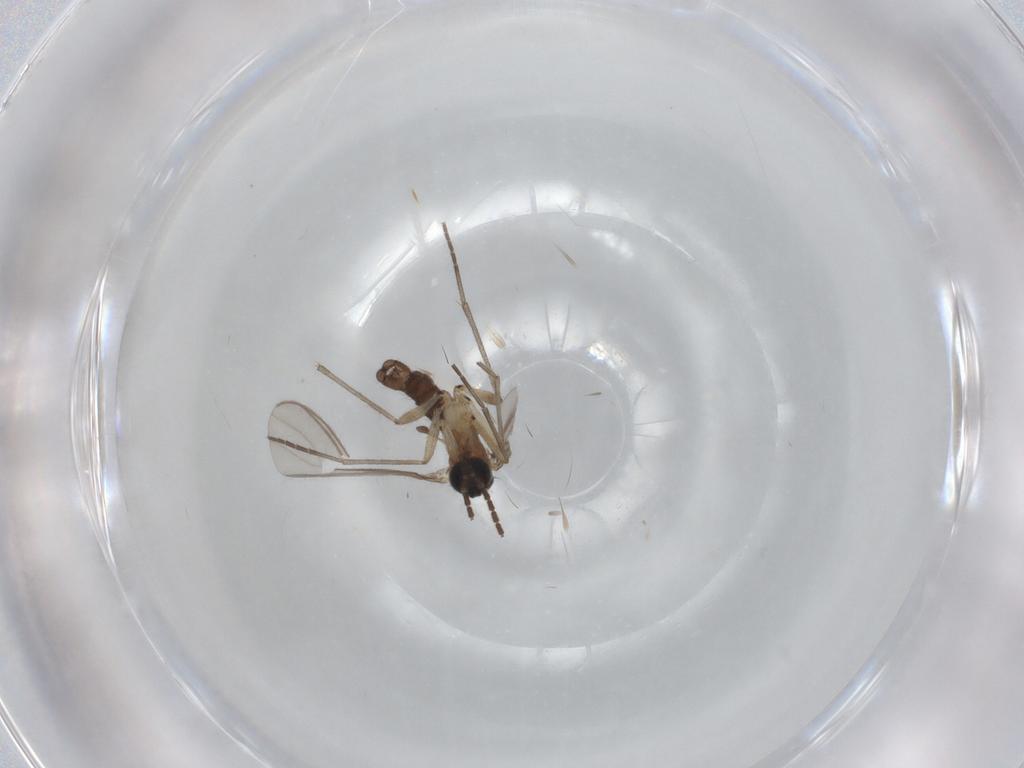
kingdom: Animalia
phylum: Arthropoda
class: Insecta
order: Diptera
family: Sciaridae
